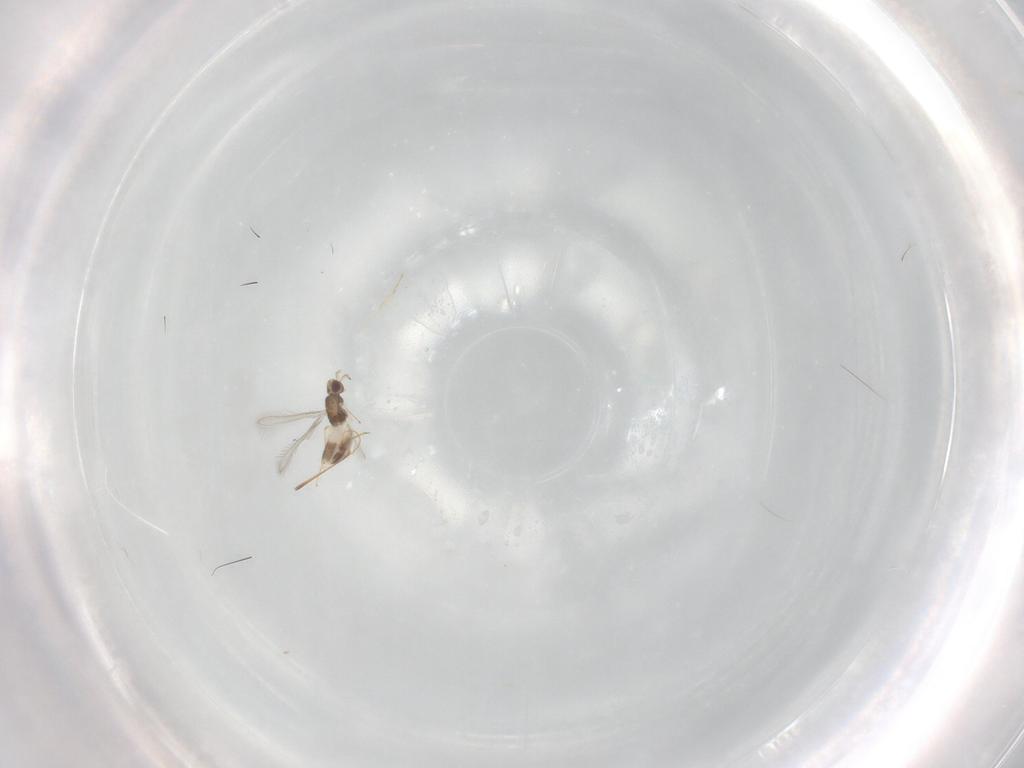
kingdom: Animalia
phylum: Arthropoda
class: Insecta
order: Hymenoptera
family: Mymaridae
